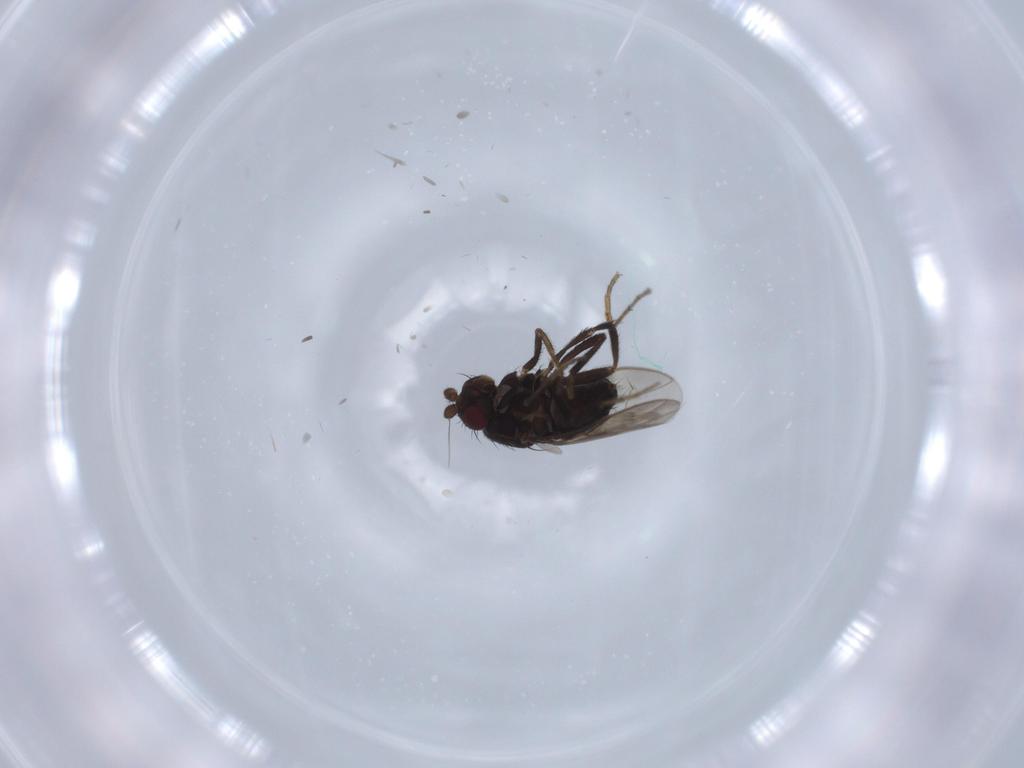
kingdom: Animalia
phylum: Arthropoda
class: Insecta
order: Diptera
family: Sphaeroceridae
